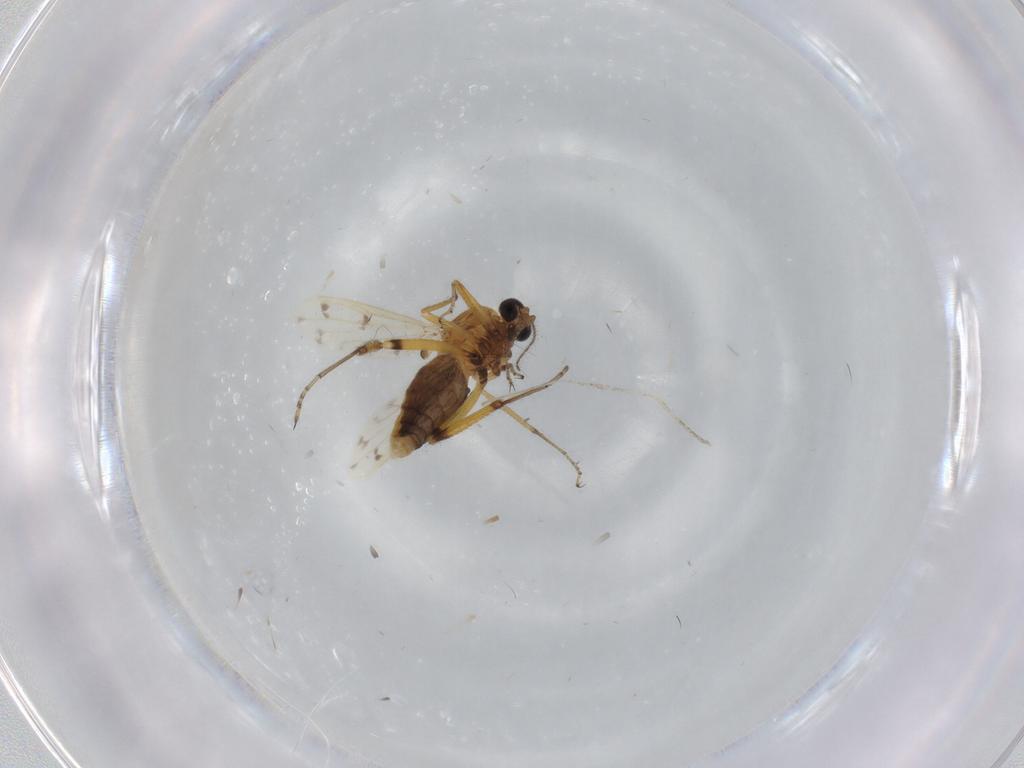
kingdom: Animalia
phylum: Arthropoda
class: Insecta
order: Diptera
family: Ceratopogonidae
